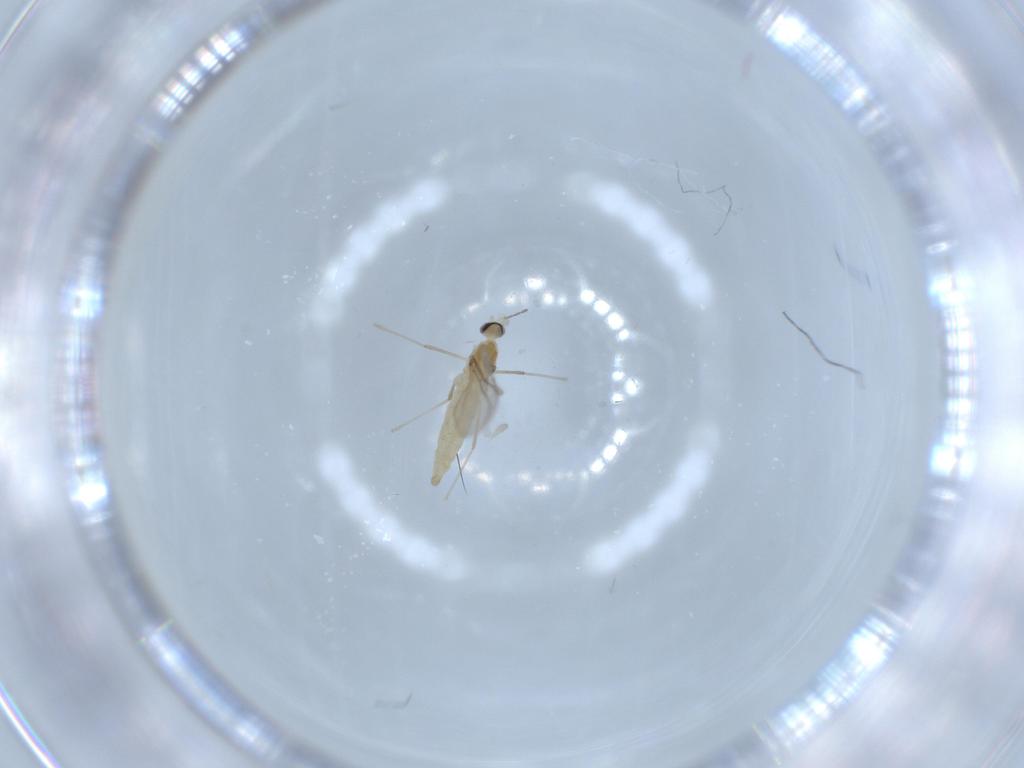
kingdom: Animalia
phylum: Arthropoda
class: Insecta
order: Diptera
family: Cecidomyiidae
